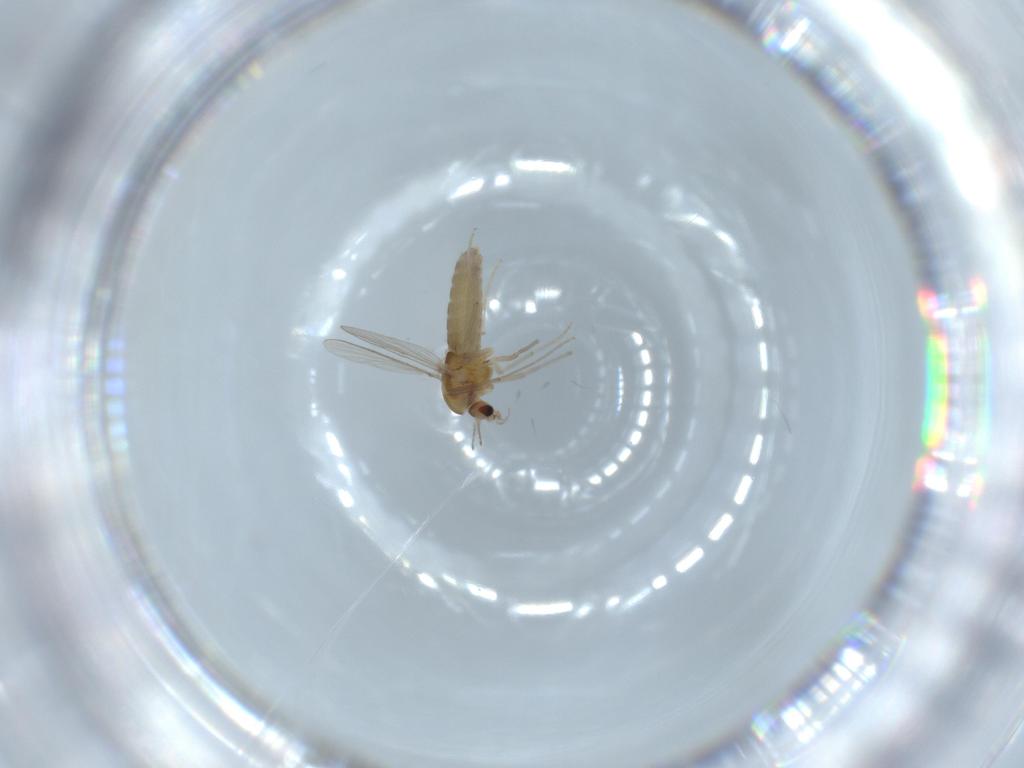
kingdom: Animalia
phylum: Arthropoda
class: Insecta
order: Diptera
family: Chironomidae
